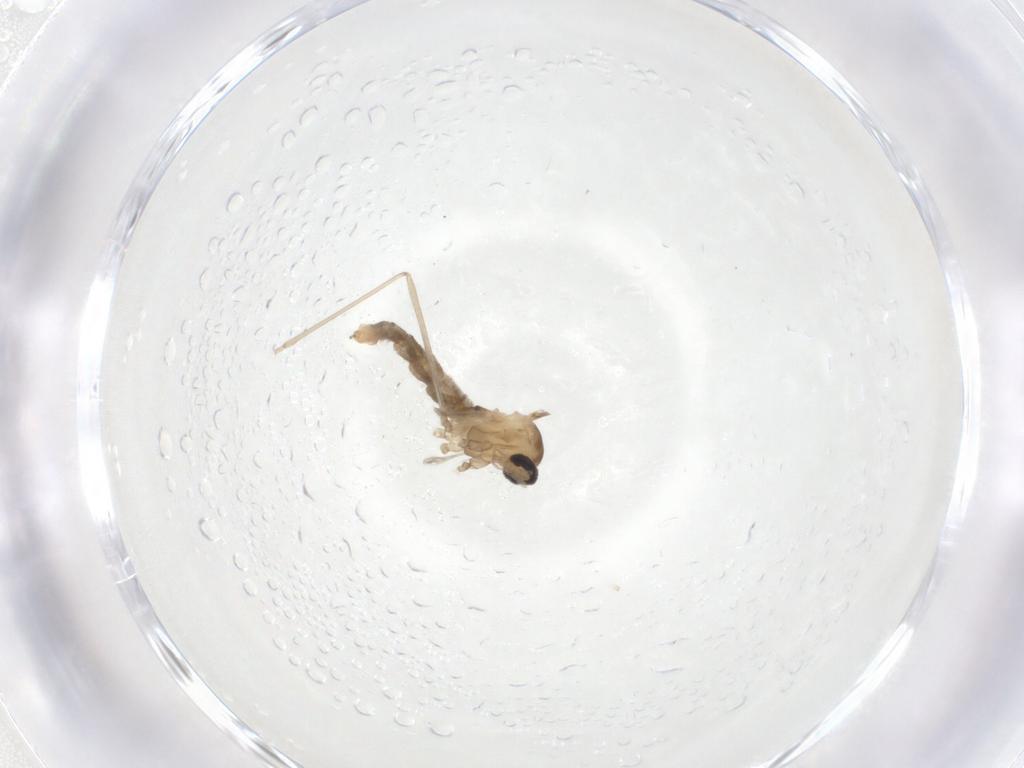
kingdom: Animalia
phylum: Arthropoda
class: Insecta
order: Diptera
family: Cecidomyiidae
